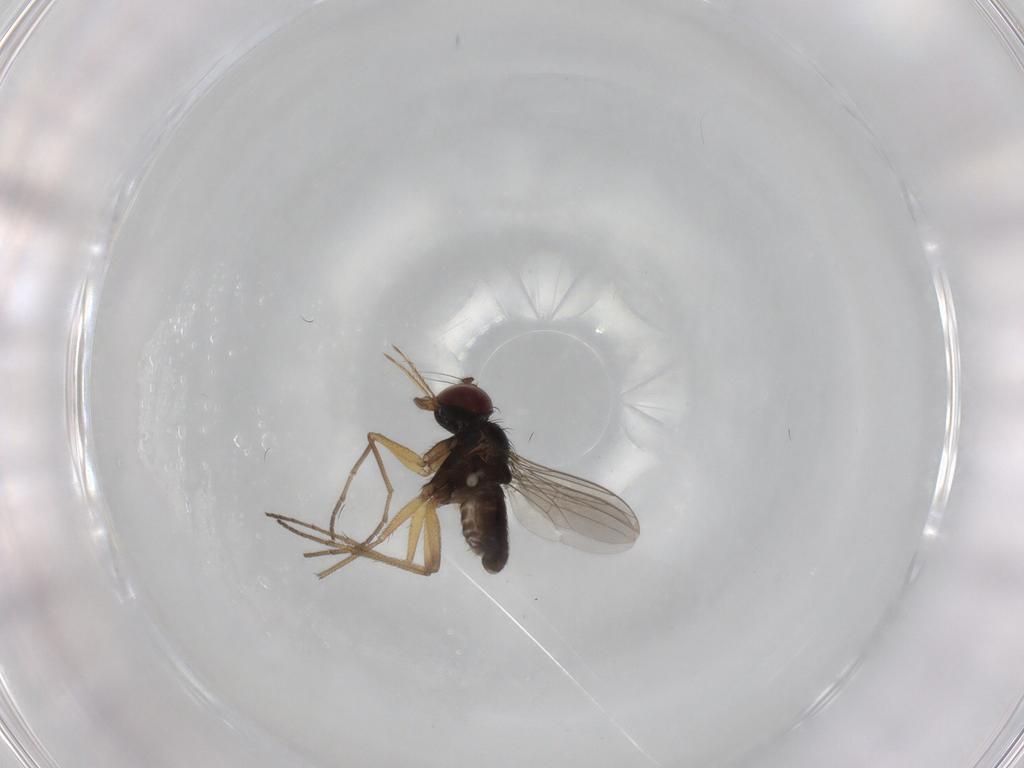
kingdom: Animalia
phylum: Arthropoda
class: Insecta
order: Diptera
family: Dolichopodidae
